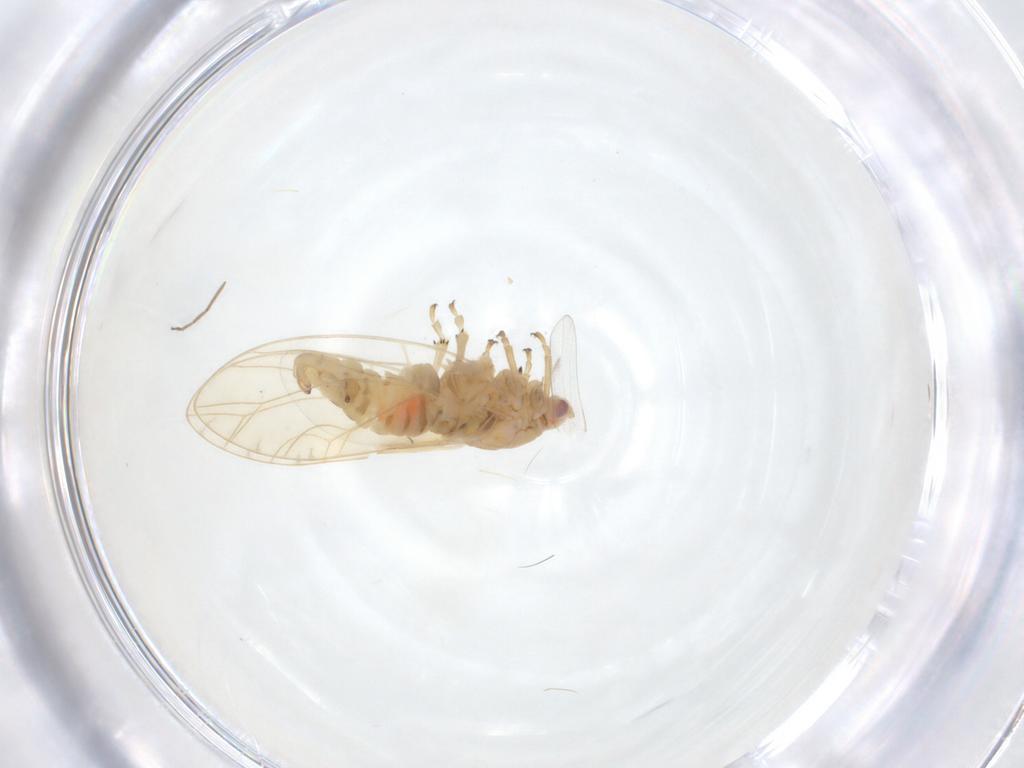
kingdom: Animalia
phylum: Arthropoda
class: Insecta
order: Hemiptera
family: Triozidae
